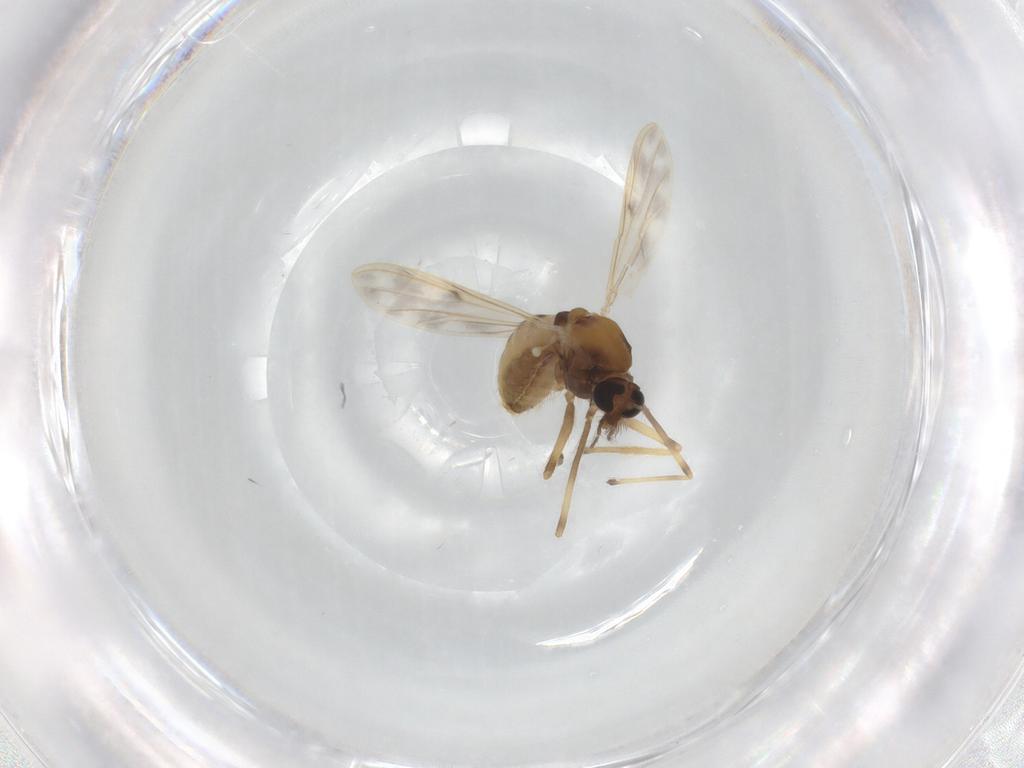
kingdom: Animalia
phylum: Arthropoda
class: Insecta
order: Diptera
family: Chironomidae
